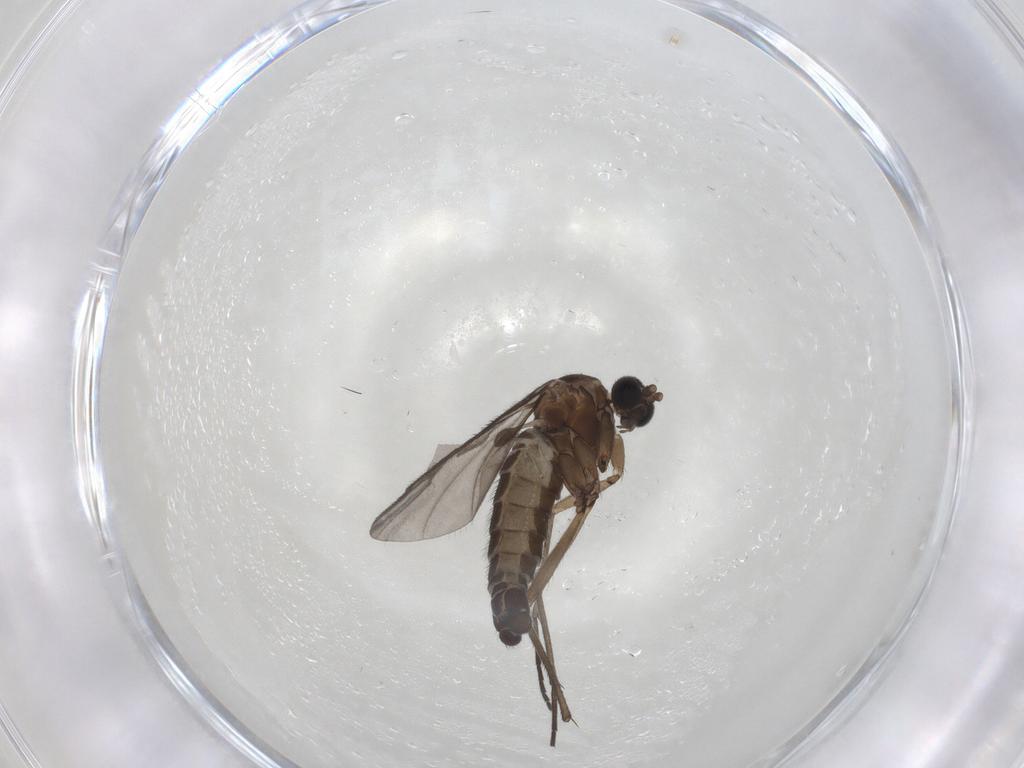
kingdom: Animalia
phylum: Arthropoda
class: Insecta
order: Diptera
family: Sciaridae
